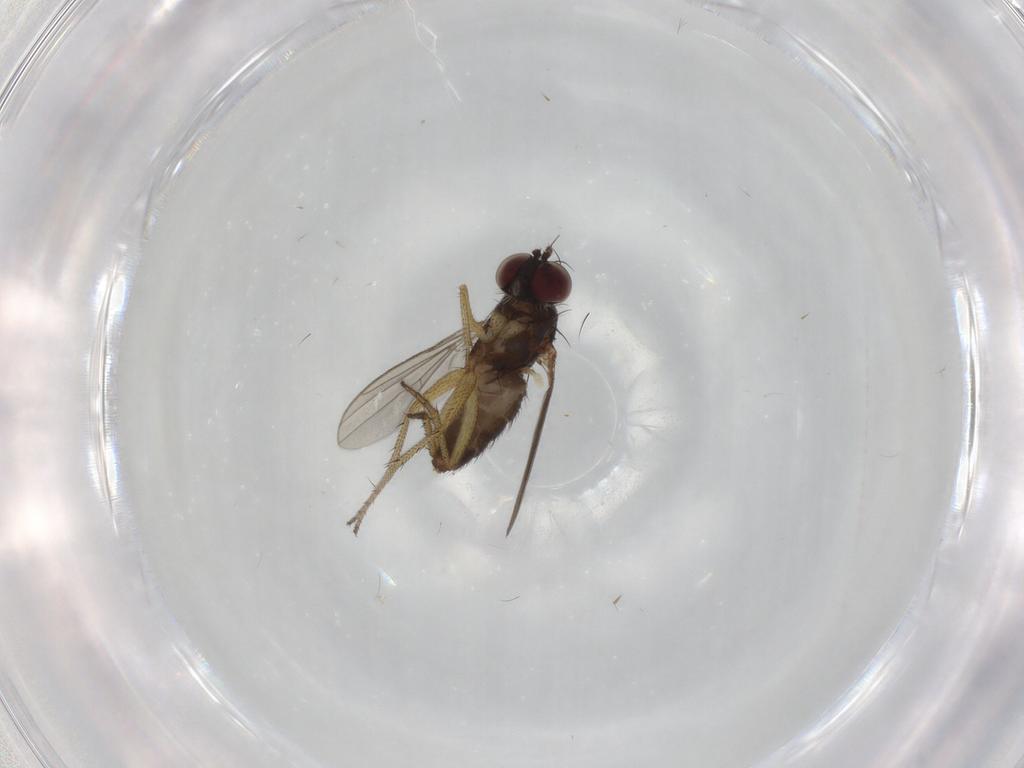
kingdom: Animalia
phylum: Arthropoda
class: Insecta
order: Diptera
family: Dolichopodidae
